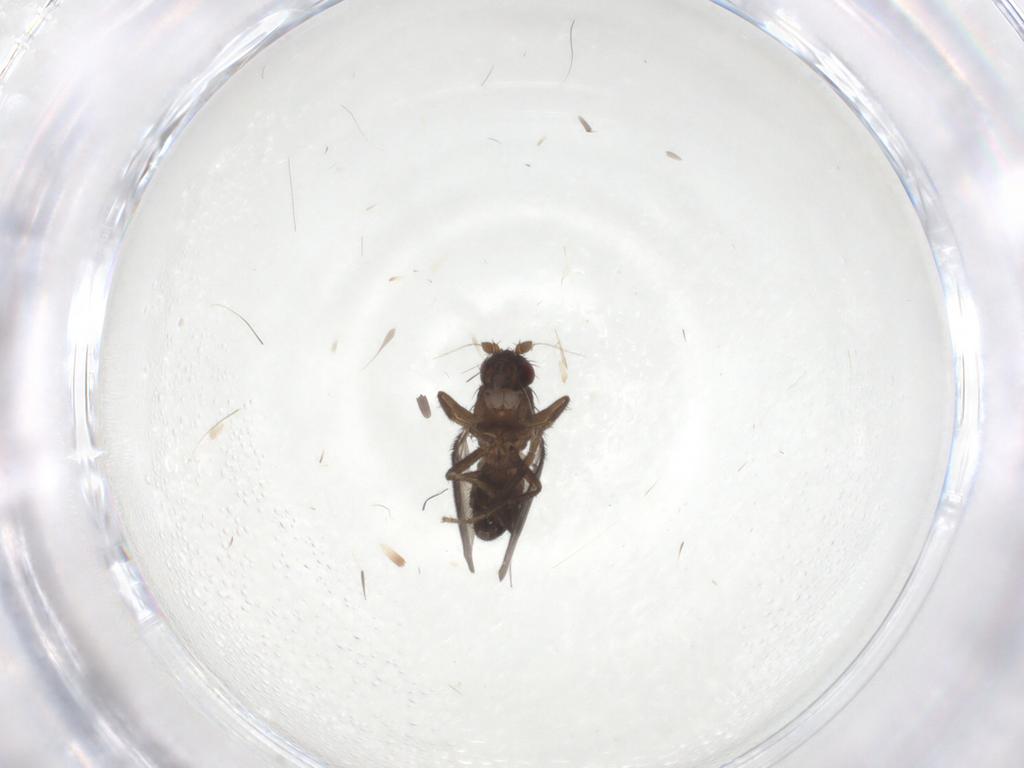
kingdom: Animalia
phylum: Arthropoda
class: Insecta
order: Diptera
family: Sphaeroceridae
